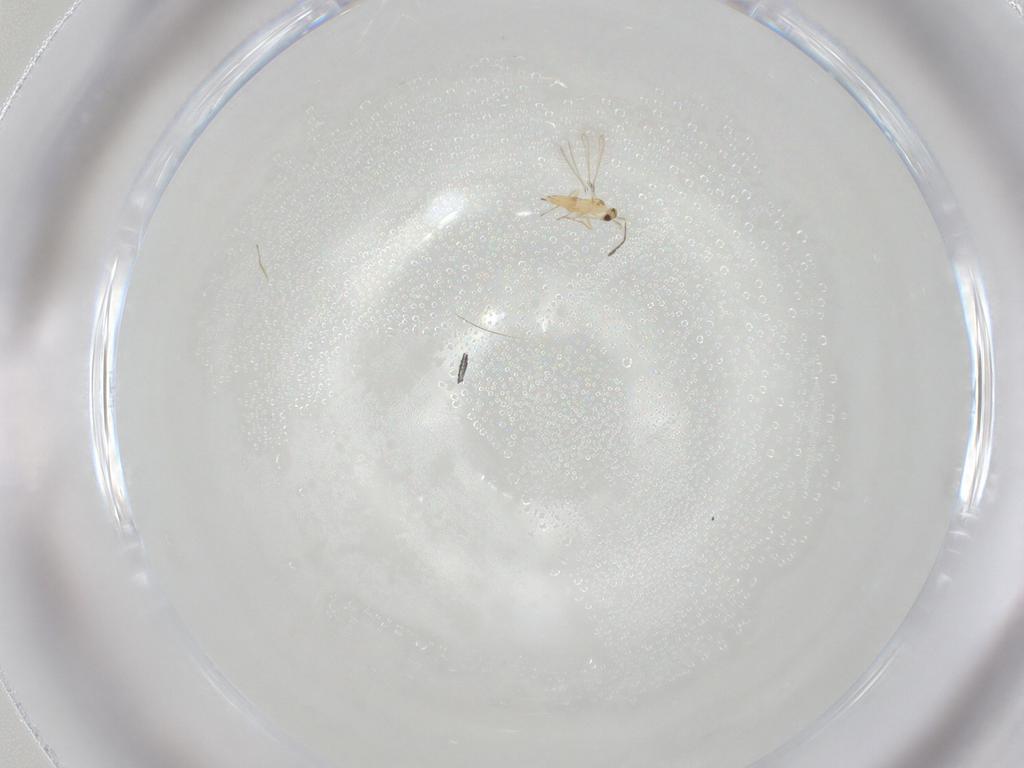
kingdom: Animalia
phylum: Arthropoda
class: Insecta
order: Hymenoptera
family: Mymaridae
